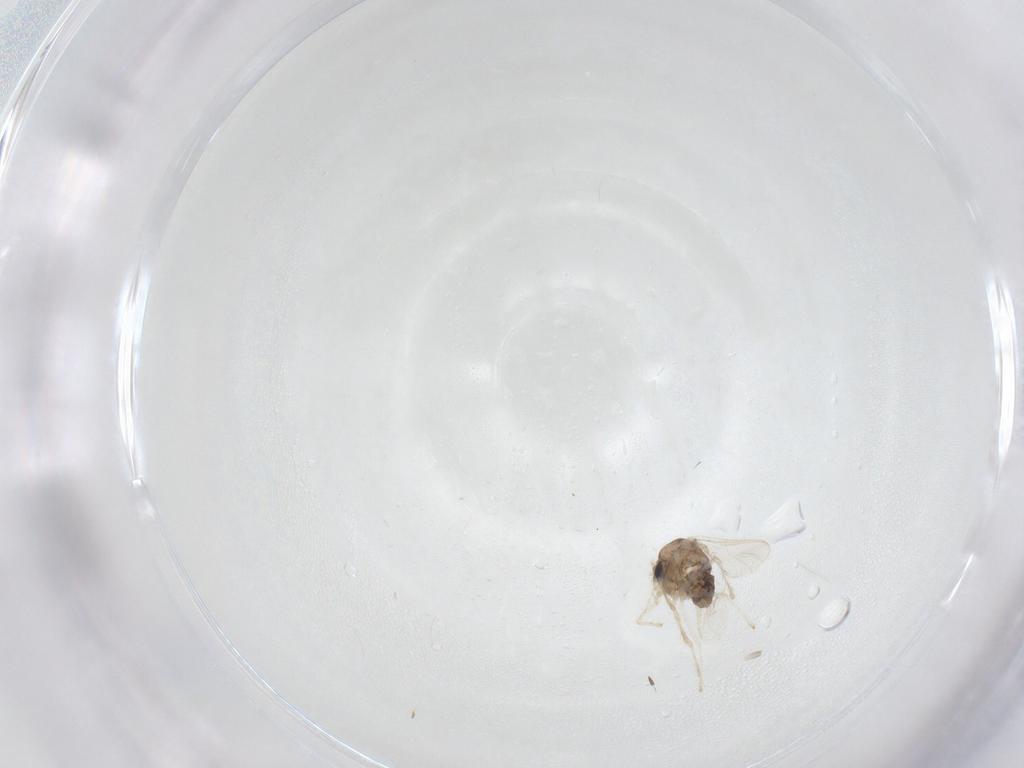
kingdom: Animalia
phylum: Arthropoda
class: Insecta
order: Diptera
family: Chironomidae
